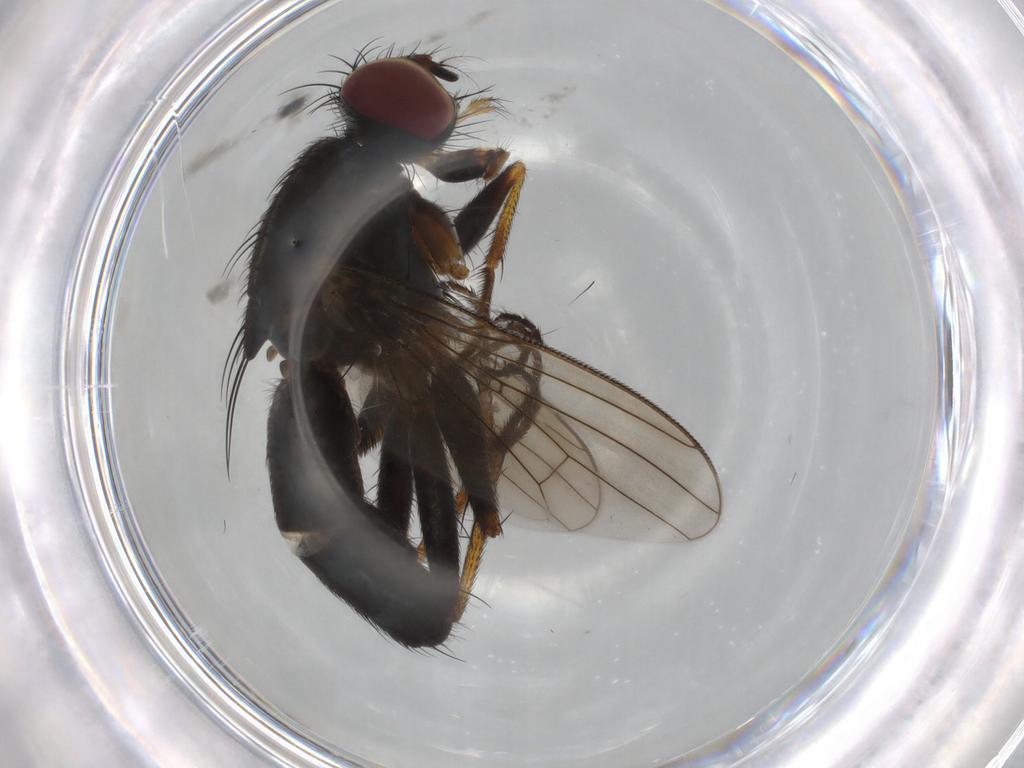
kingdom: Animalia
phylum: Arthropoda
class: Insecta
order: Diptera
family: Muscidae
